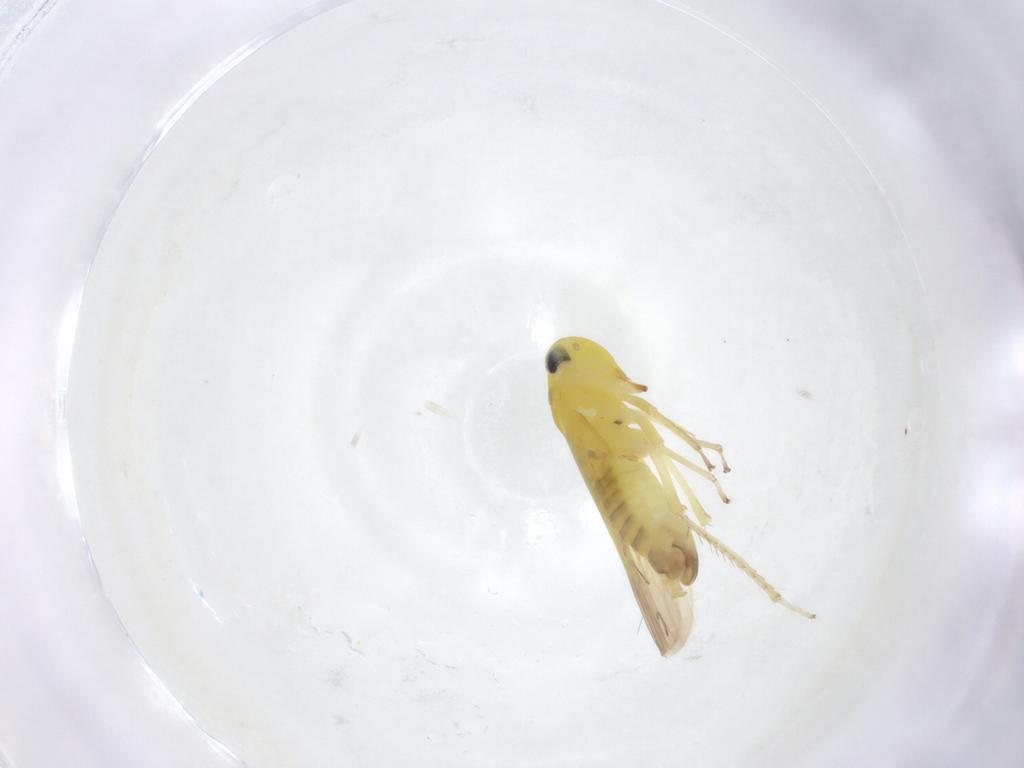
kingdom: Animalia
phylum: Arthropoda
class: Insecta
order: Hemiptera
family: Cicadellidae
